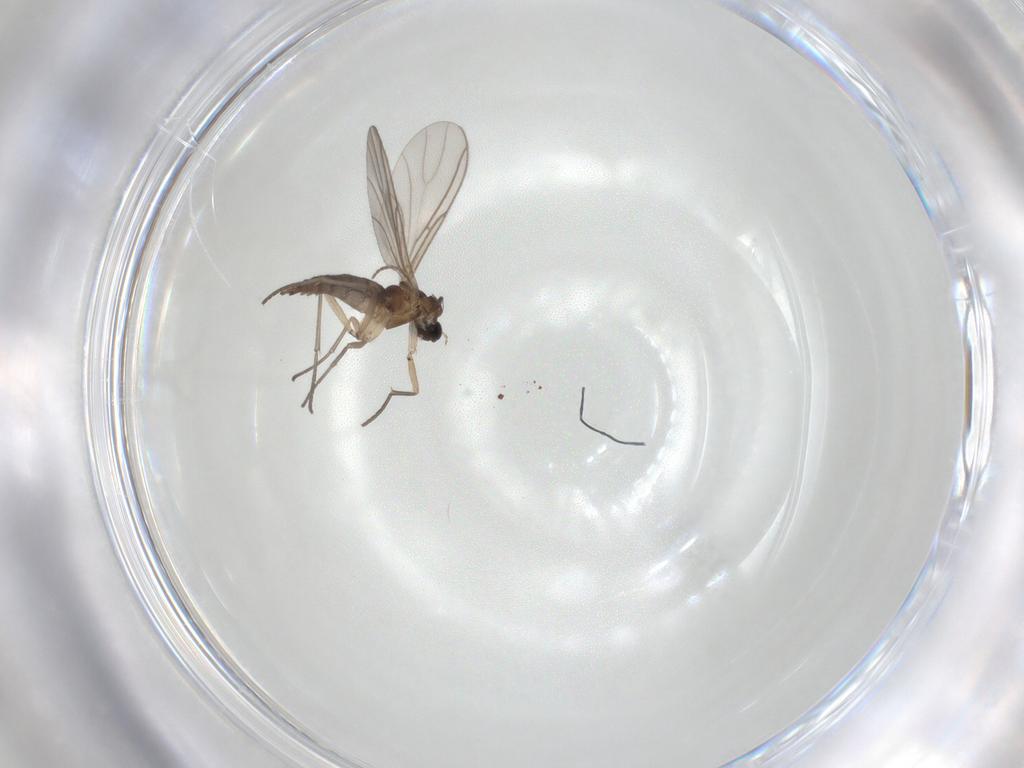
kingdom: Animalia
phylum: Arthropoda
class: Insecta
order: Diptera
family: Sciaridae
